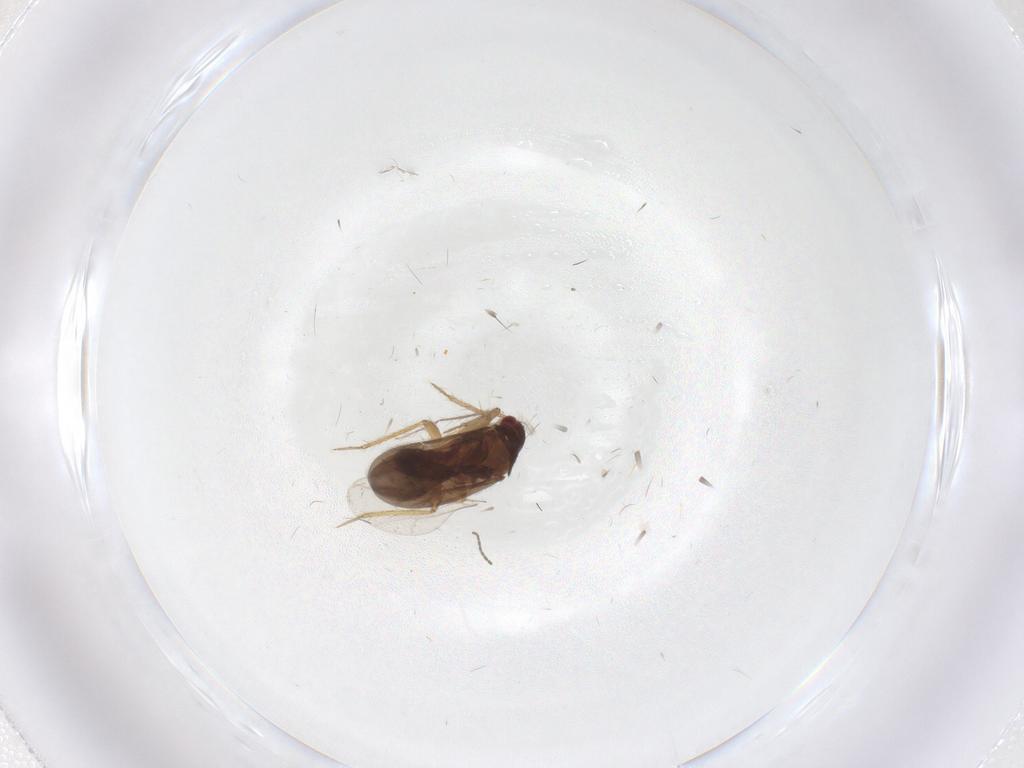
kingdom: Animalia
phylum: Arthropoda
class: Insecta
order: Hemiptera
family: Ceratocombidae
